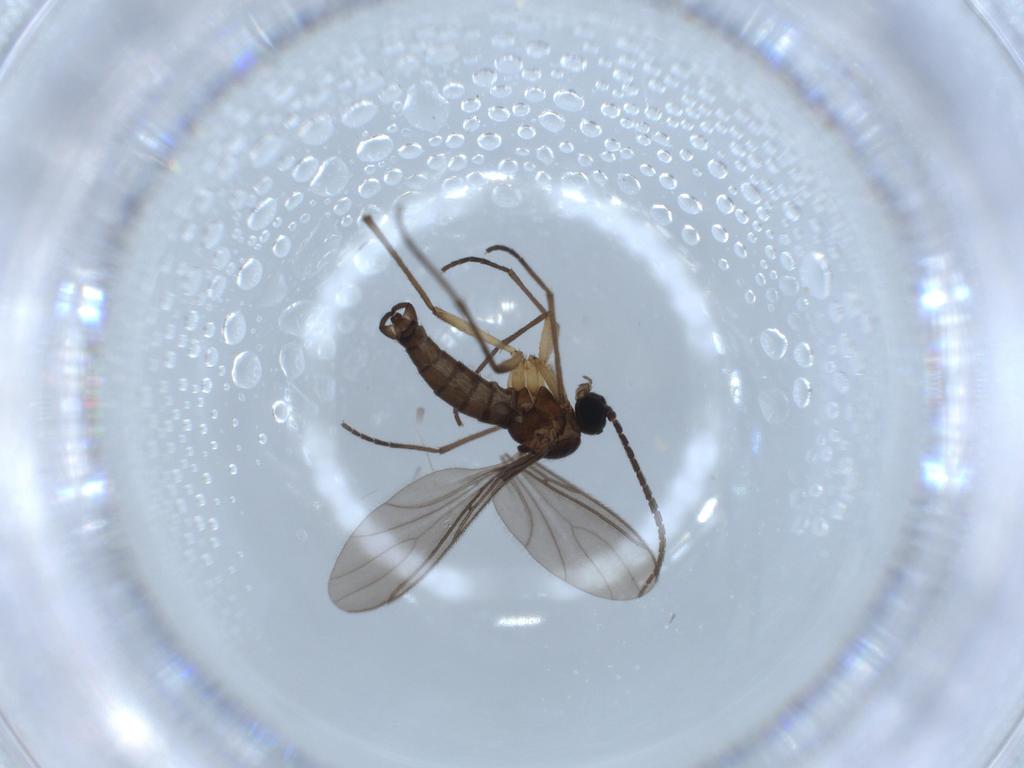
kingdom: Animalia
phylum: Arthropoda
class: Insecta
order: Diptera
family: Sciaridae
